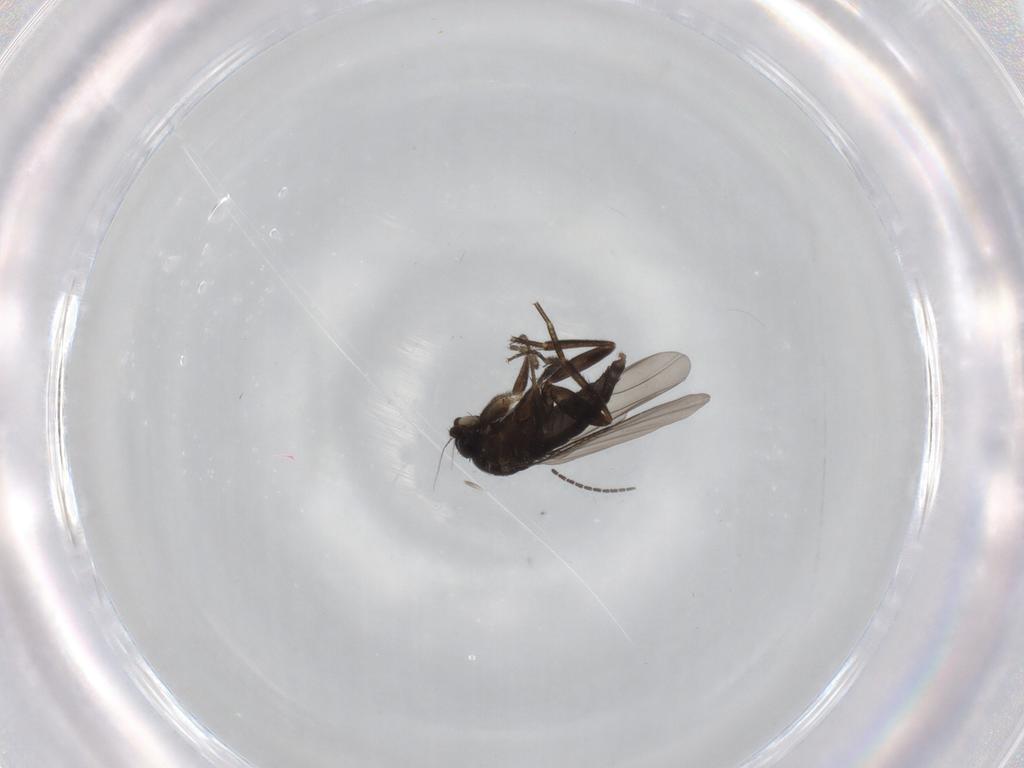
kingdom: Animalia
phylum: Arthropoda
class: Insecta
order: Diptera
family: Phoridae
